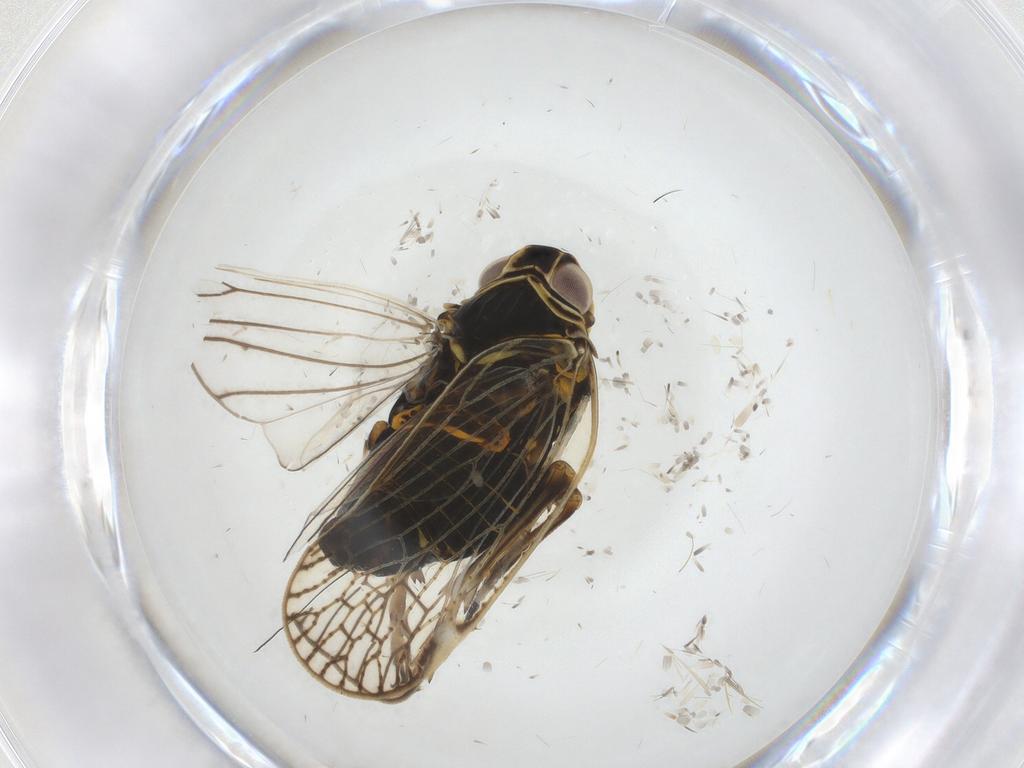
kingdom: Animalia
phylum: Arthropoda
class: Insecta
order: Hemiptera
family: Cixiidae
